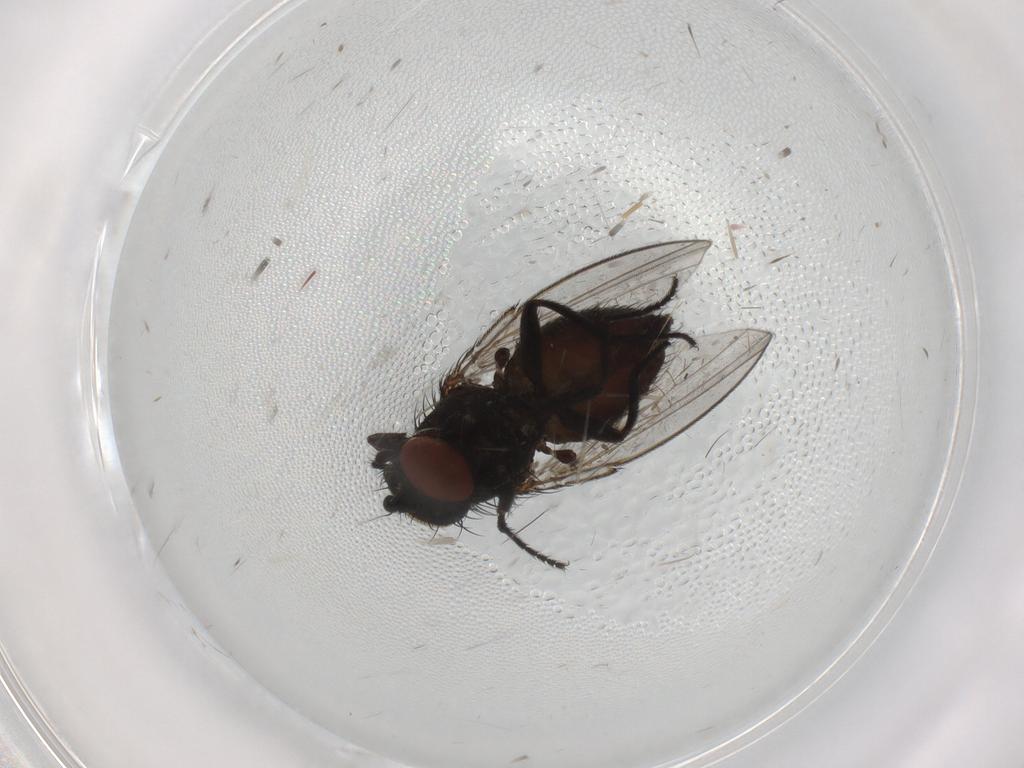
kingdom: Animalia
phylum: Arthropoda
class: Insecta
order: Diptera
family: Milichiidae
